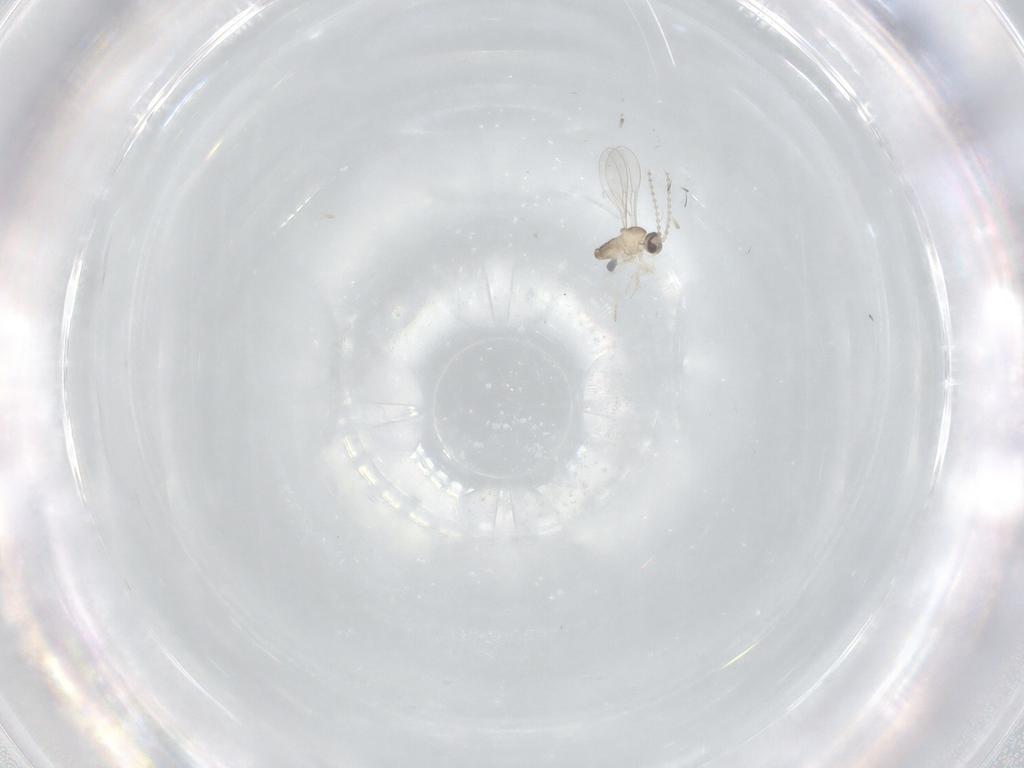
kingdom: Animalia
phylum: Arthropoda
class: Insecta
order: Diptera
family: Cecidomyiidae
